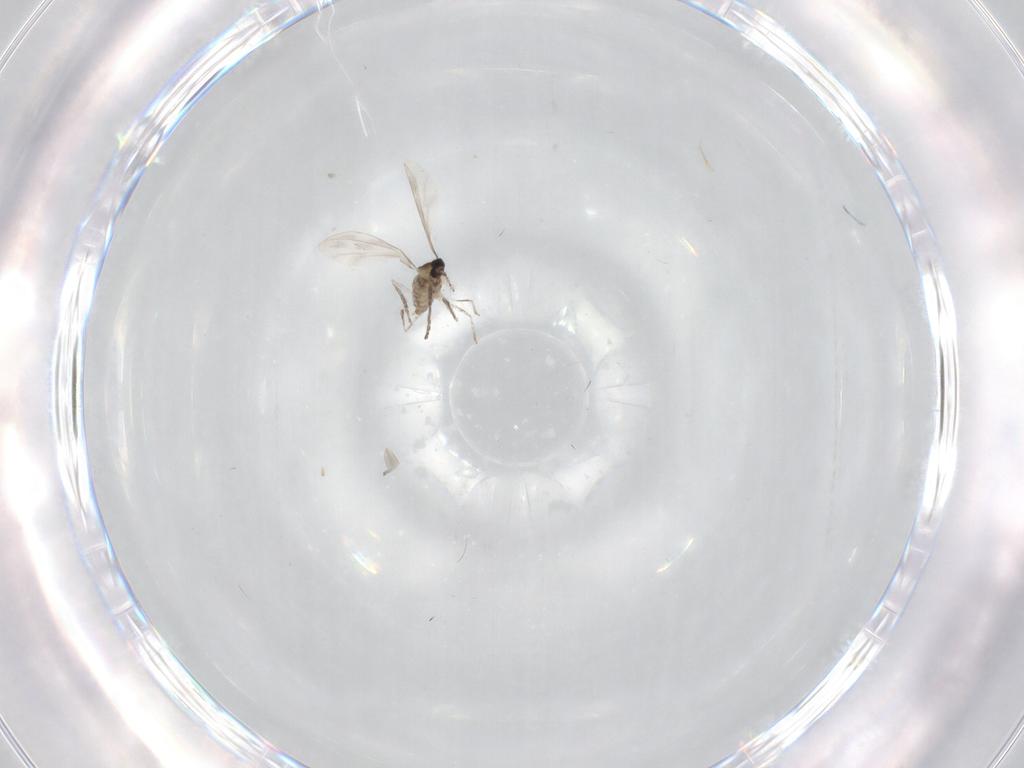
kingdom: Animalia
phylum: Arthropoda
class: Insecta
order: Diptera
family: Cecidomyiidae
